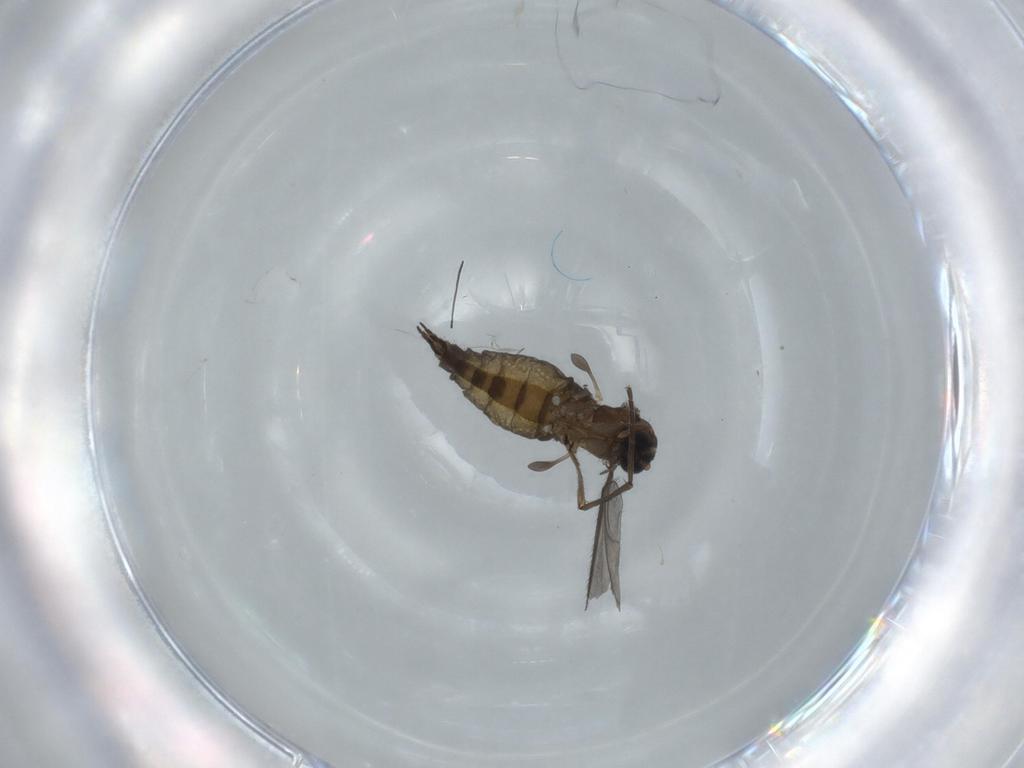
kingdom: Animalia
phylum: Arthropoda
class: Insecta
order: Diptera
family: Sciaridae
